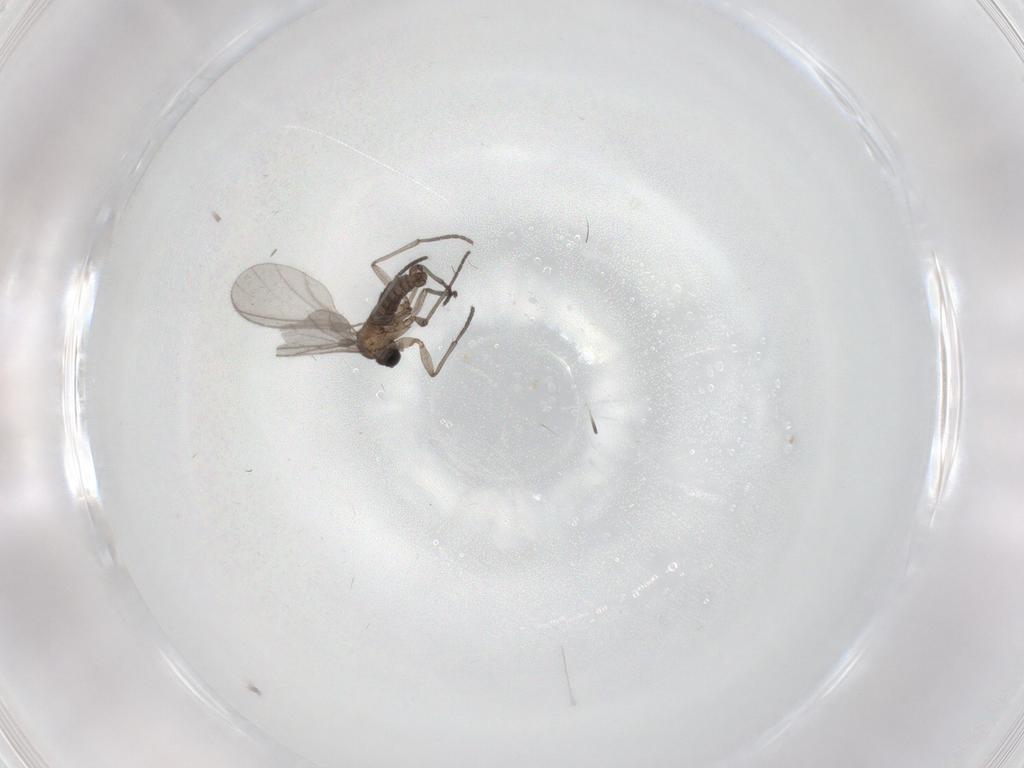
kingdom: Animalia
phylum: Arthropoda
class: Insecta
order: Diptera
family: Sciaridae
